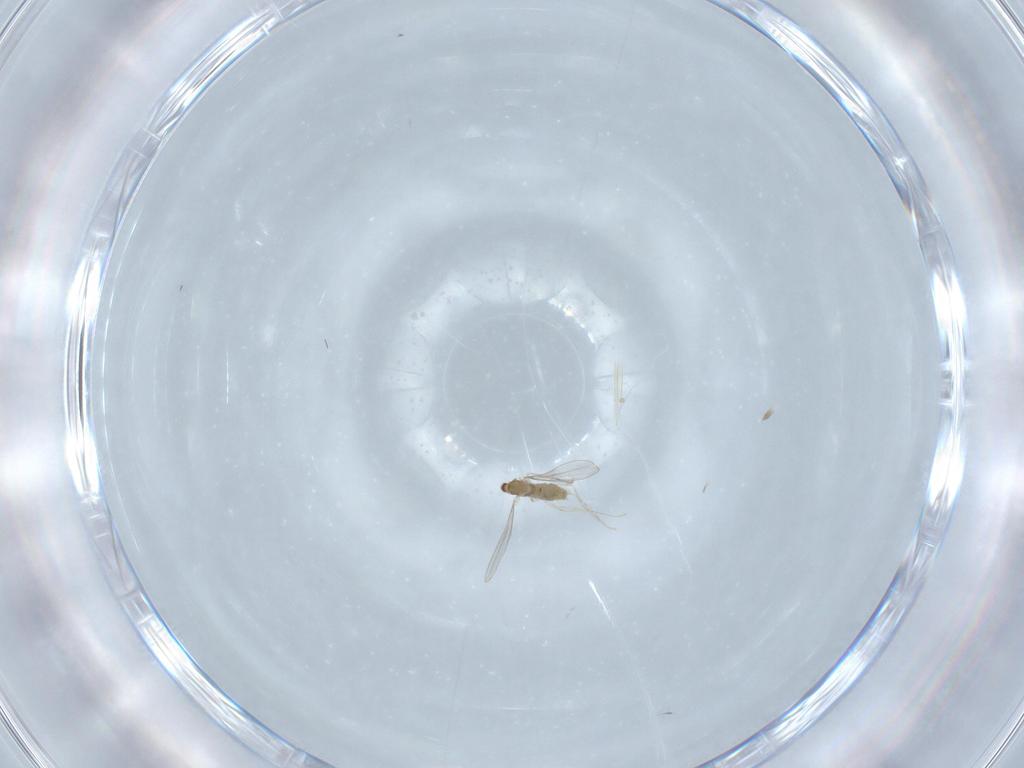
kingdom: Animalia
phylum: Arthropoda
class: Insecta
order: Diptera
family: Cecidomyiidae
